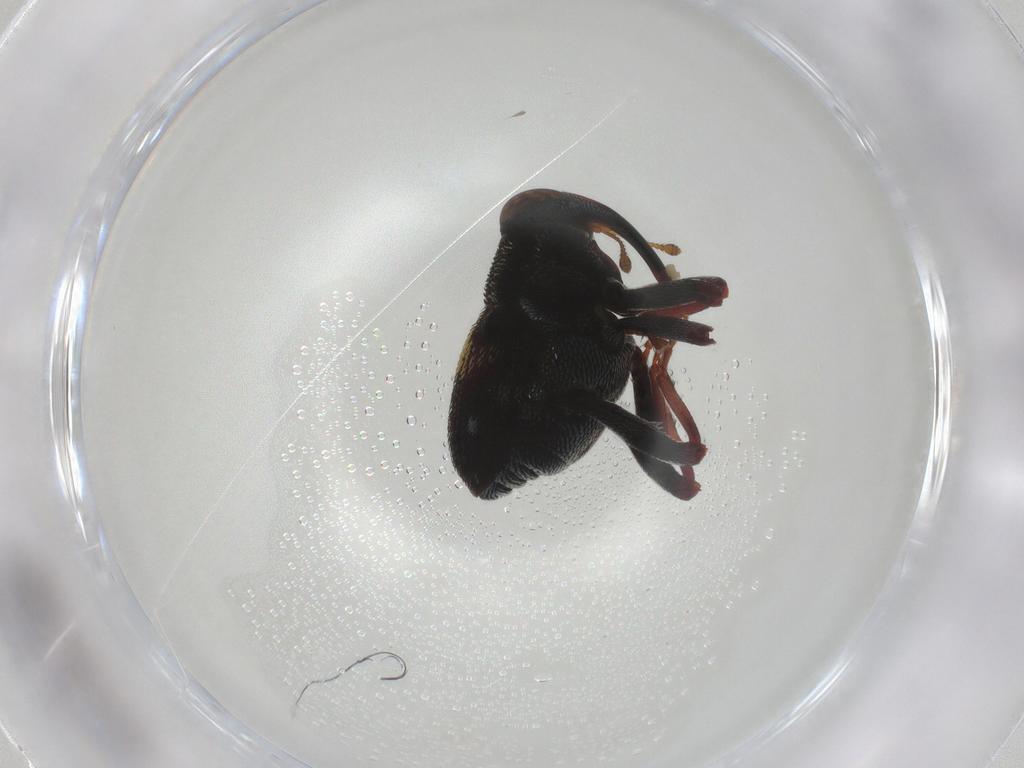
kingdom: Animalia
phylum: Arthropoda
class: Insecta
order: Coleoptera
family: Curculionidae
